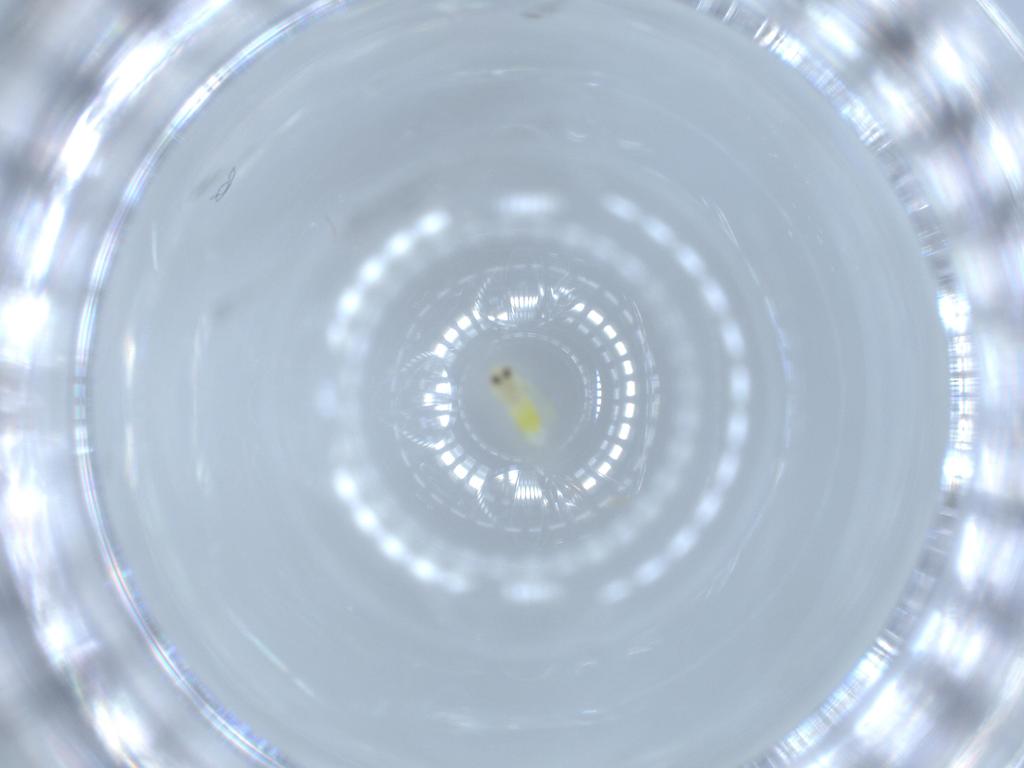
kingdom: Animalia
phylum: Arthropoda
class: Insecta
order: Hemiptera
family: Aleyrodidae
